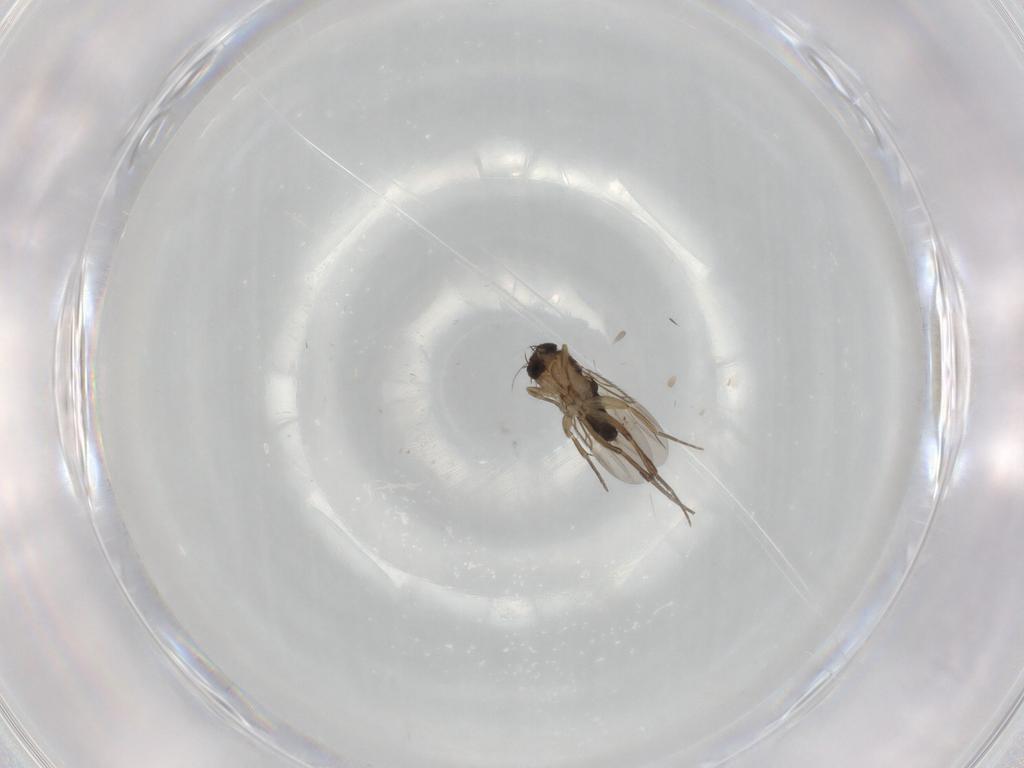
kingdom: Animalia
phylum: Arthropoda
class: Insecta
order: Diptera
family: Phoridae
